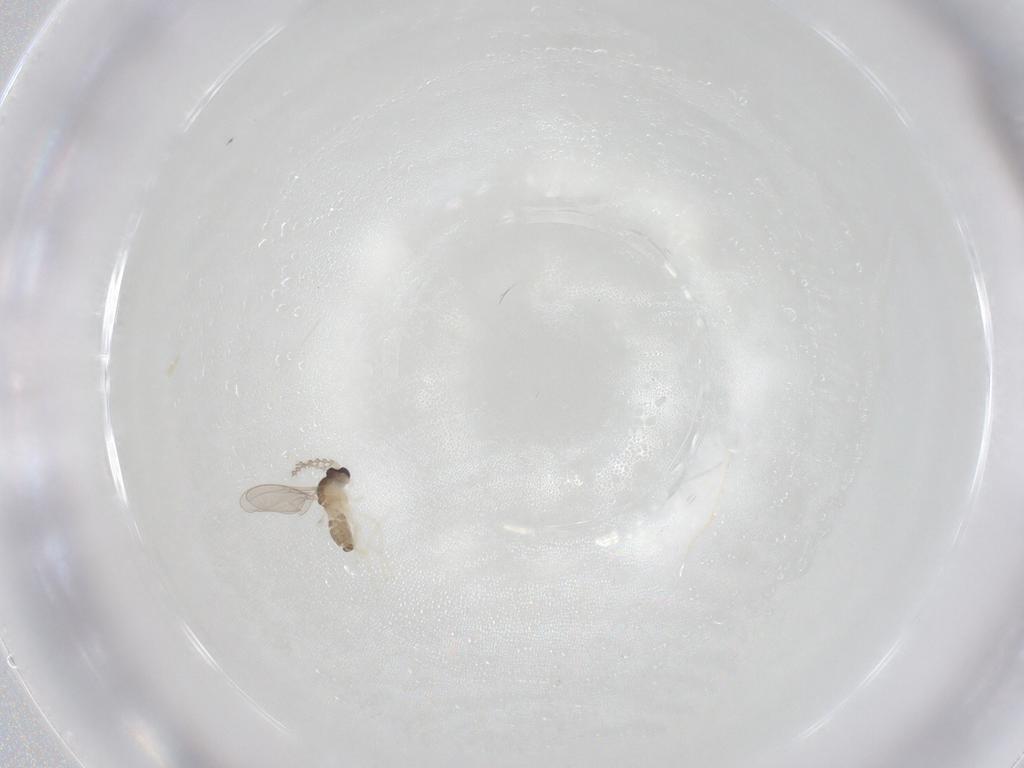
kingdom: Animalia
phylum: Arthropoda
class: Insecta
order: Diptera
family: Cecidomyiidae
